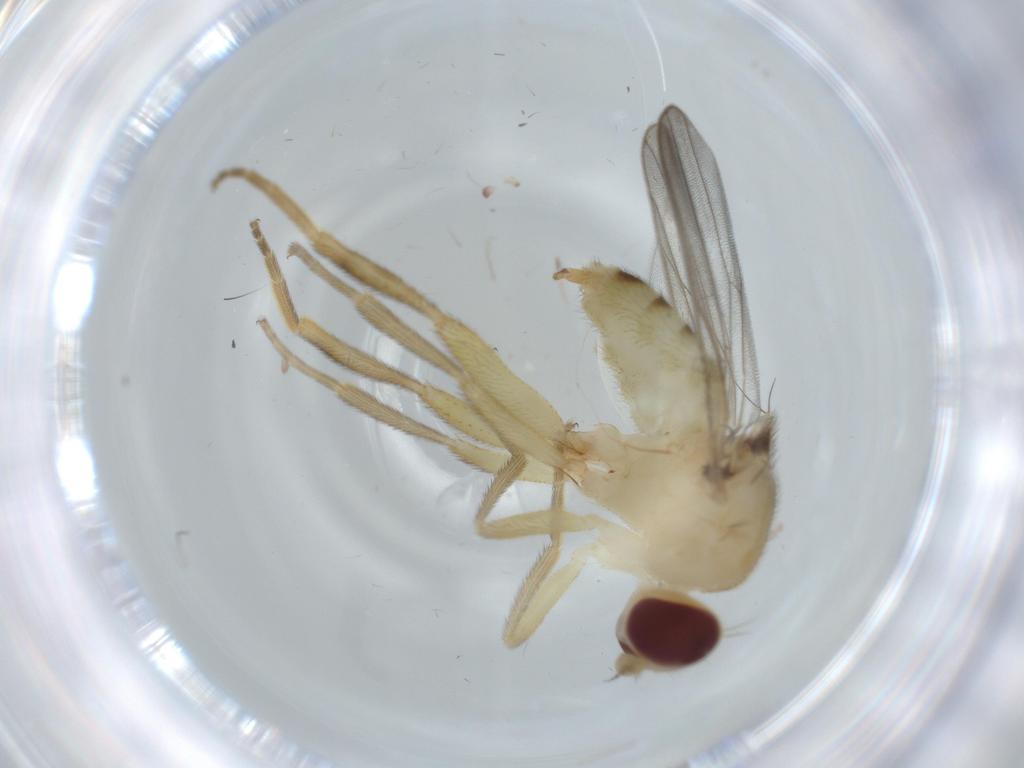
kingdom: Animalia
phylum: Arthropoda
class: Insecta
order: Diptera
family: Chloropidae
